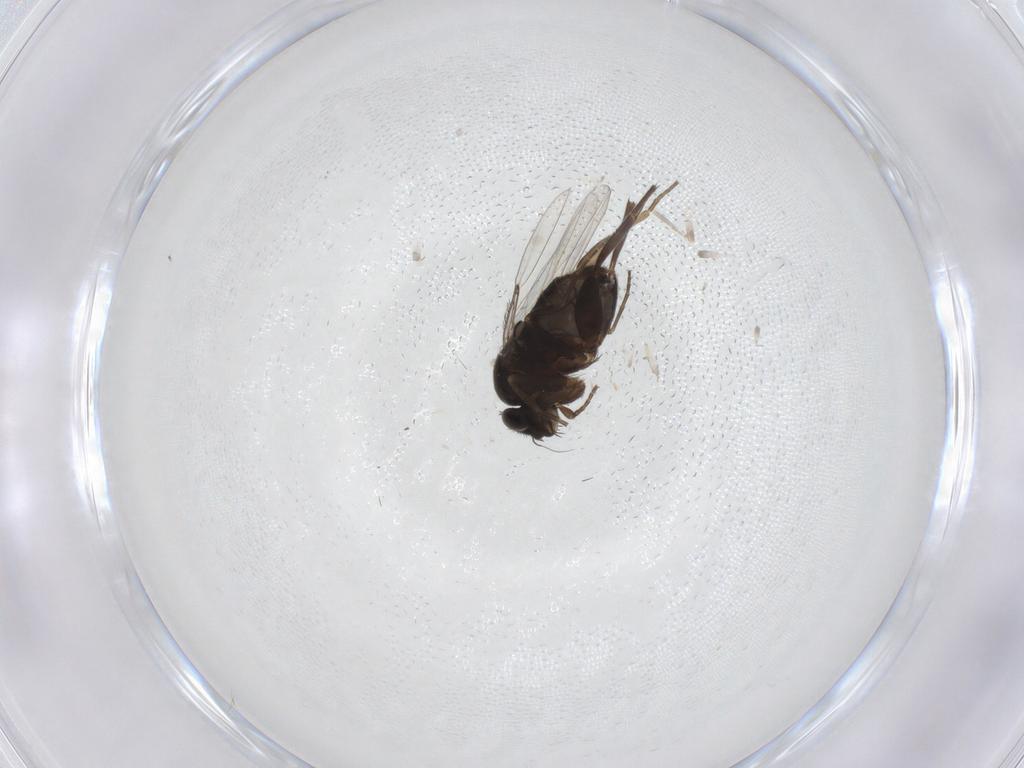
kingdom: Animalia
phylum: Arthropoda
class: Insecta
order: Diptera
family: Phoridae
